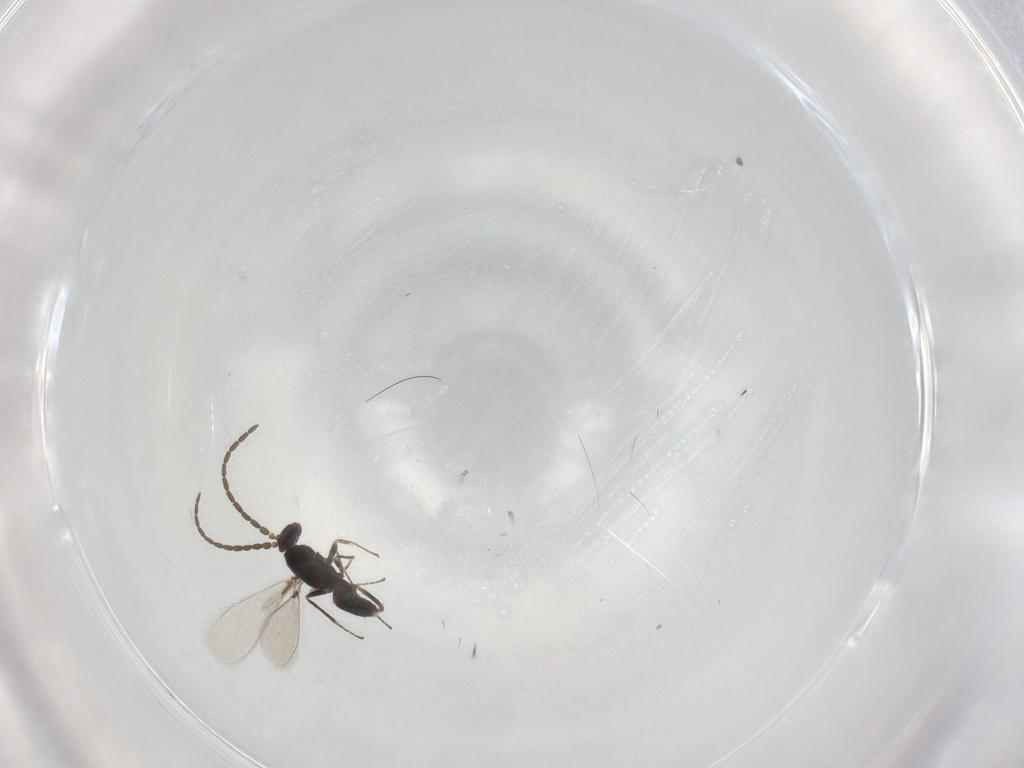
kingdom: Animalia
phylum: Arthropoda
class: Insecta
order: Hymenoptera
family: Mymaridae
